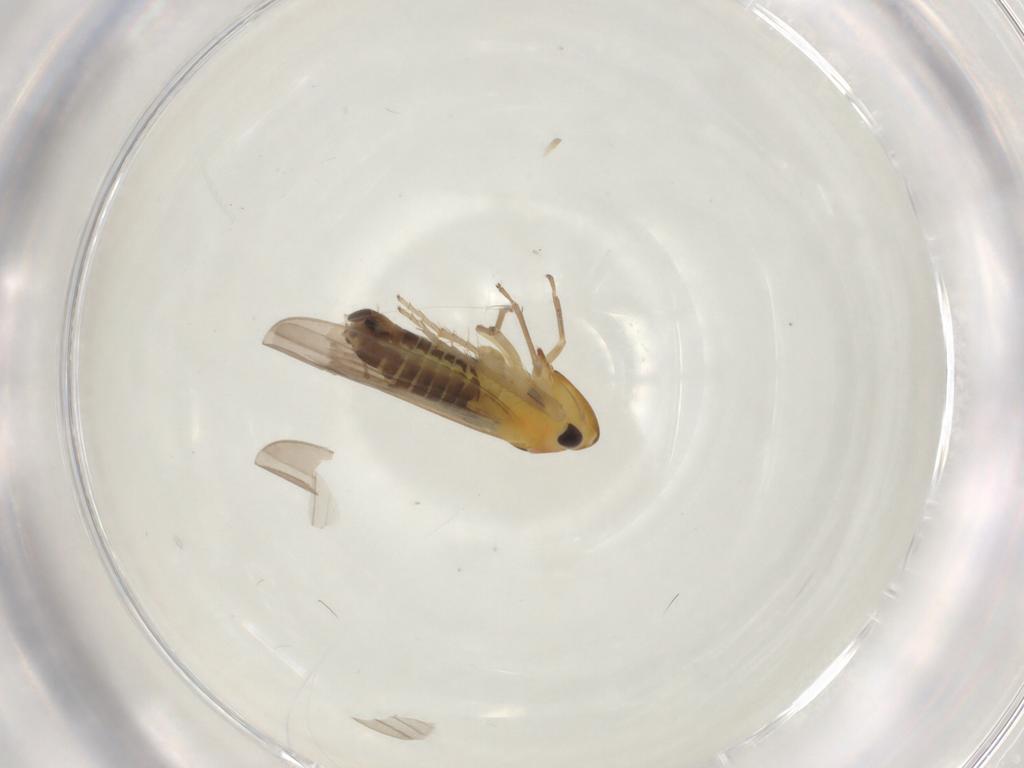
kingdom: Animalia
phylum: Arthropoda
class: Insecta
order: Hemiptera
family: Cicadellidae
